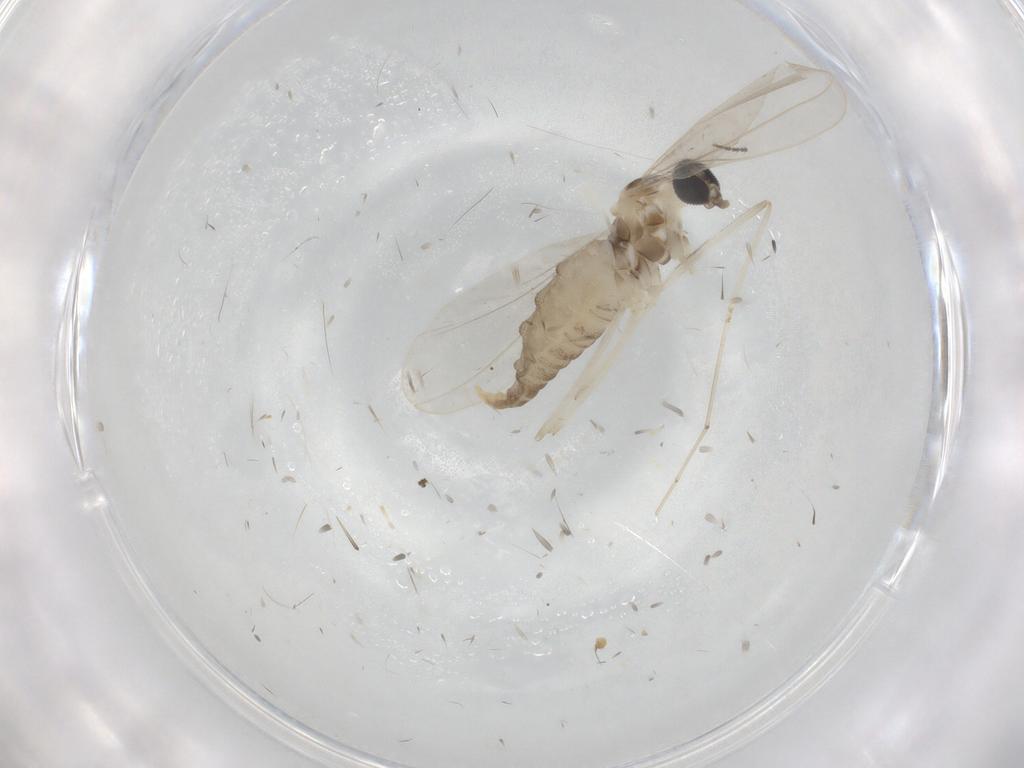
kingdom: Animalia
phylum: Arthropoda
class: Insecta
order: Diptera
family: Cecidomyiidae
